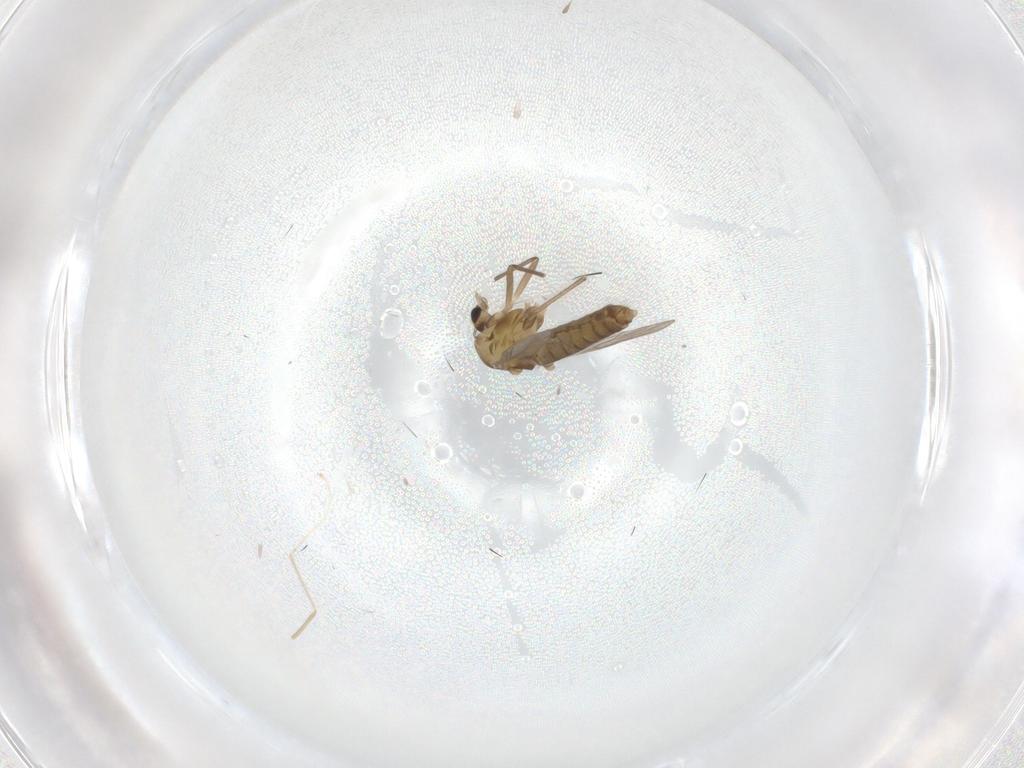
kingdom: Animalia
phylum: Arthropoda
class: Insecta
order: Diptera
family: Chironomidae
